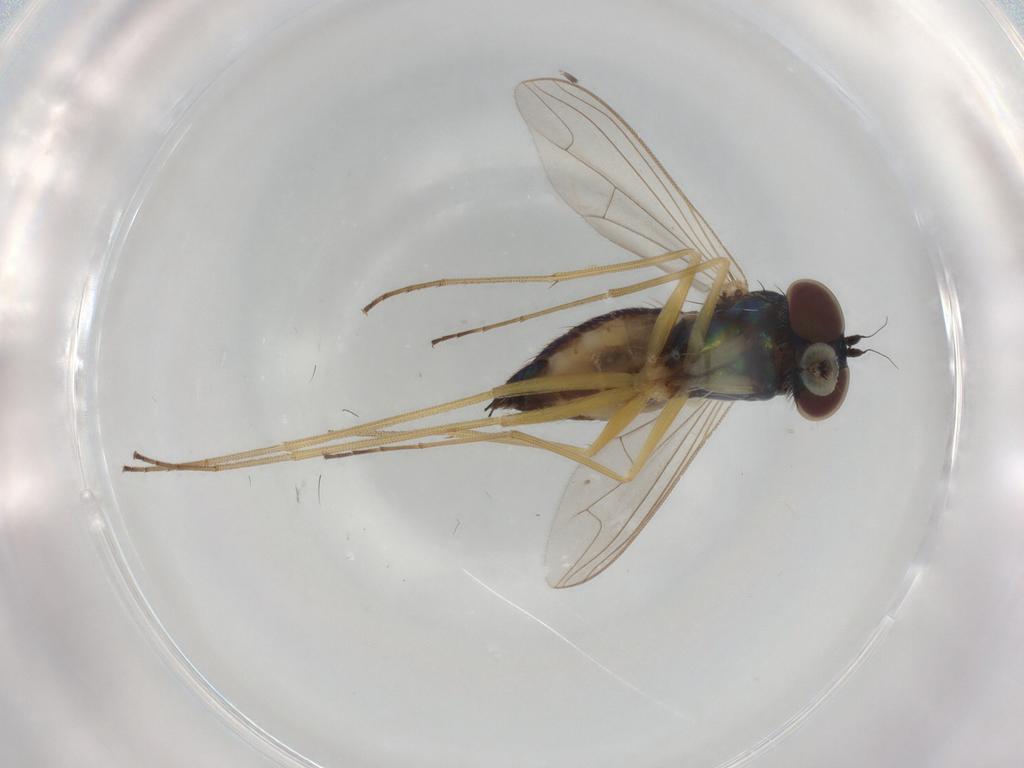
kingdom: Animalia
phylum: Arthropoda
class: Insecta
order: Diptera
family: Dolichopodidae
